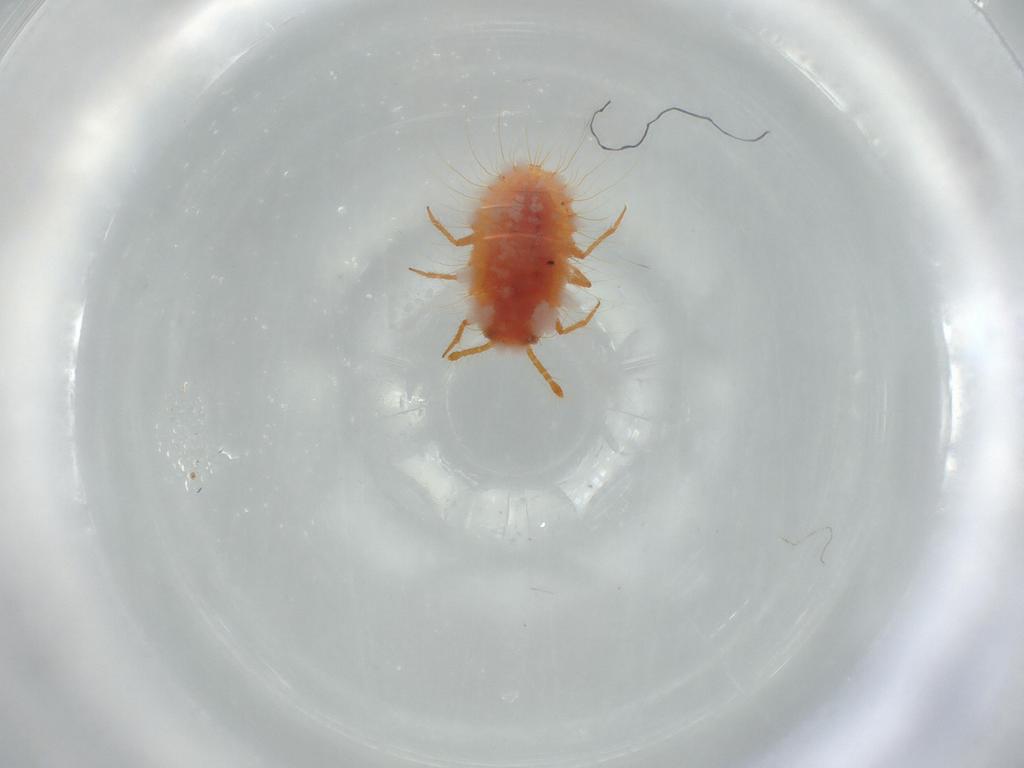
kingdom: Animalia
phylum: Arthropoda
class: Insecta
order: Hemiptera
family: Coccoidea_incertae_sedis
